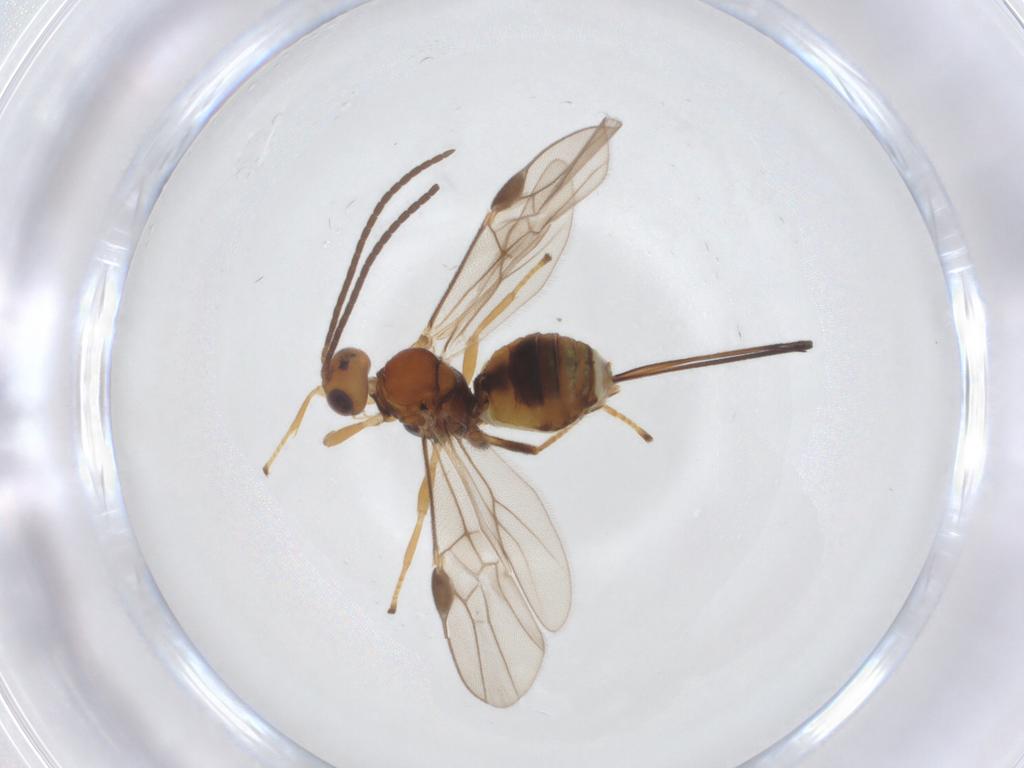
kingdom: Animalia
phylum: Arthropoda
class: Insecta
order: Hymenoptera
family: Braconidae
